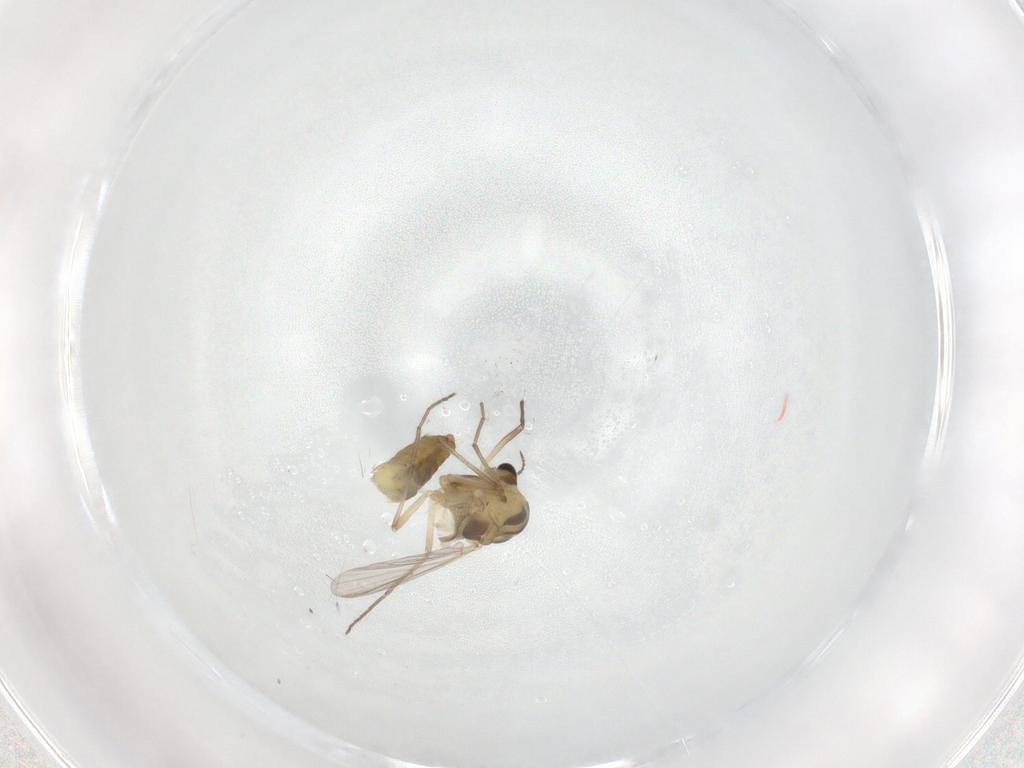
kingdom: Animalia
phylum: Arthropoda
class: Insecta
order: Diptera
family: Chironomidae
